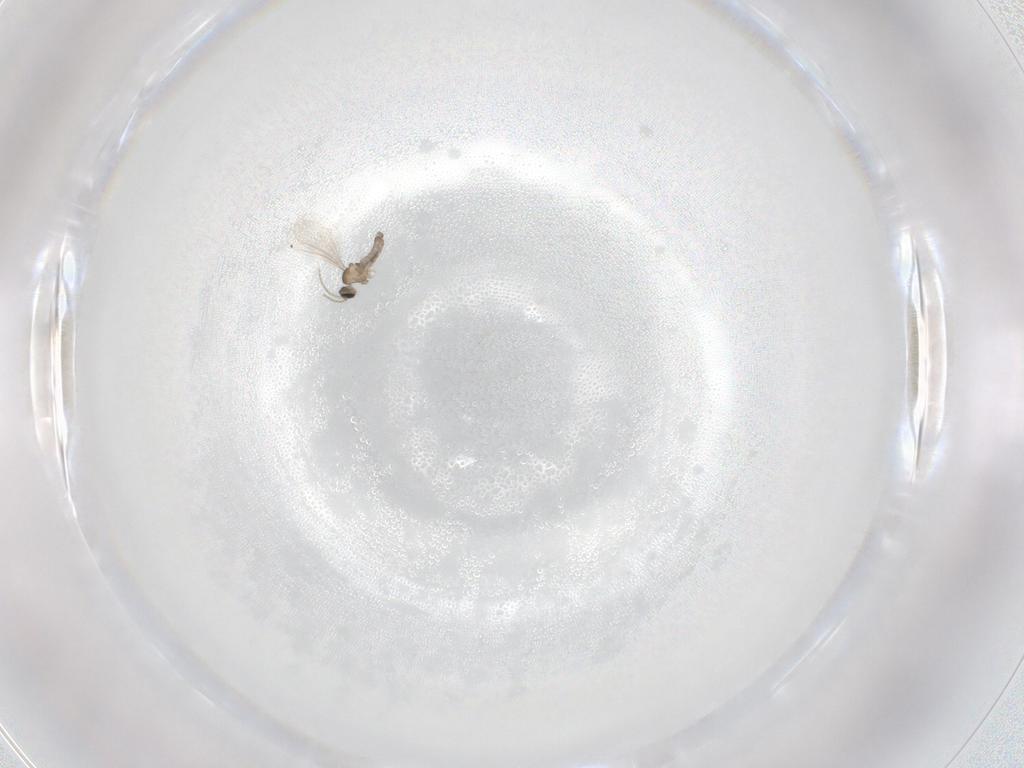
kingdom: Animalia
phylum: Arthropoda
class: Insecta
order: Diptera
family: Cecidomyiidae
